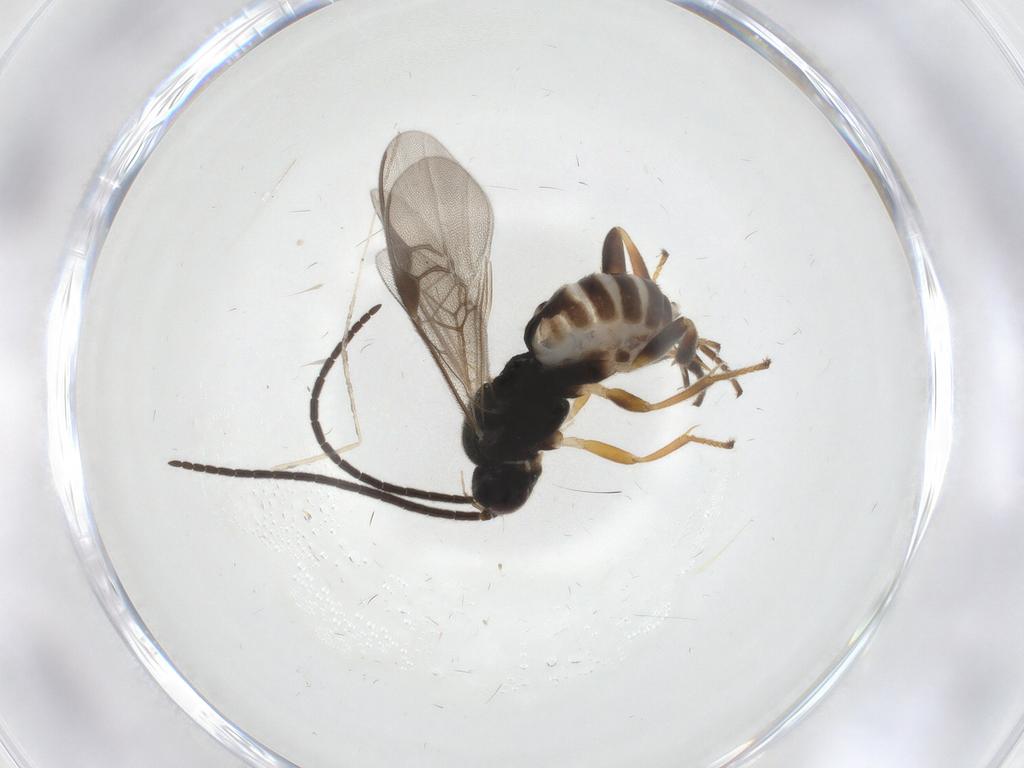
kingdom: Animalia
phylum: Arthropoda
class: Insecta
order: Hymenoptera
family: Braconidae
